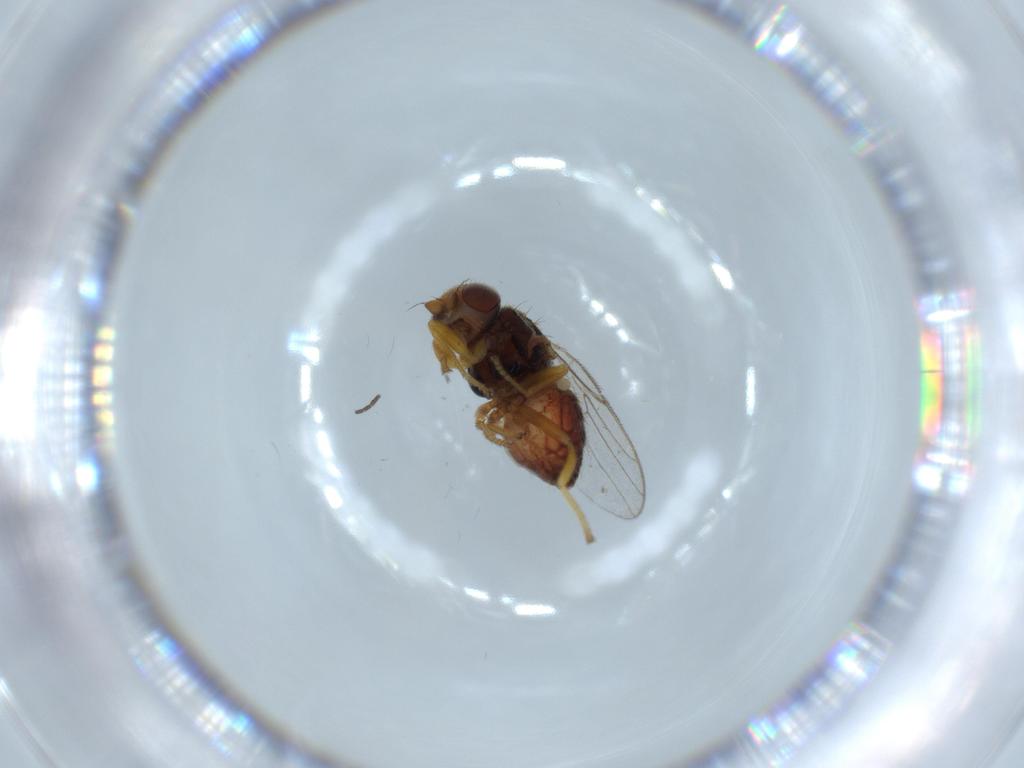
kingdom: Animalia
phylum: Arthropoda
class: Insecta
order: Diptera
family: Chloropidae
